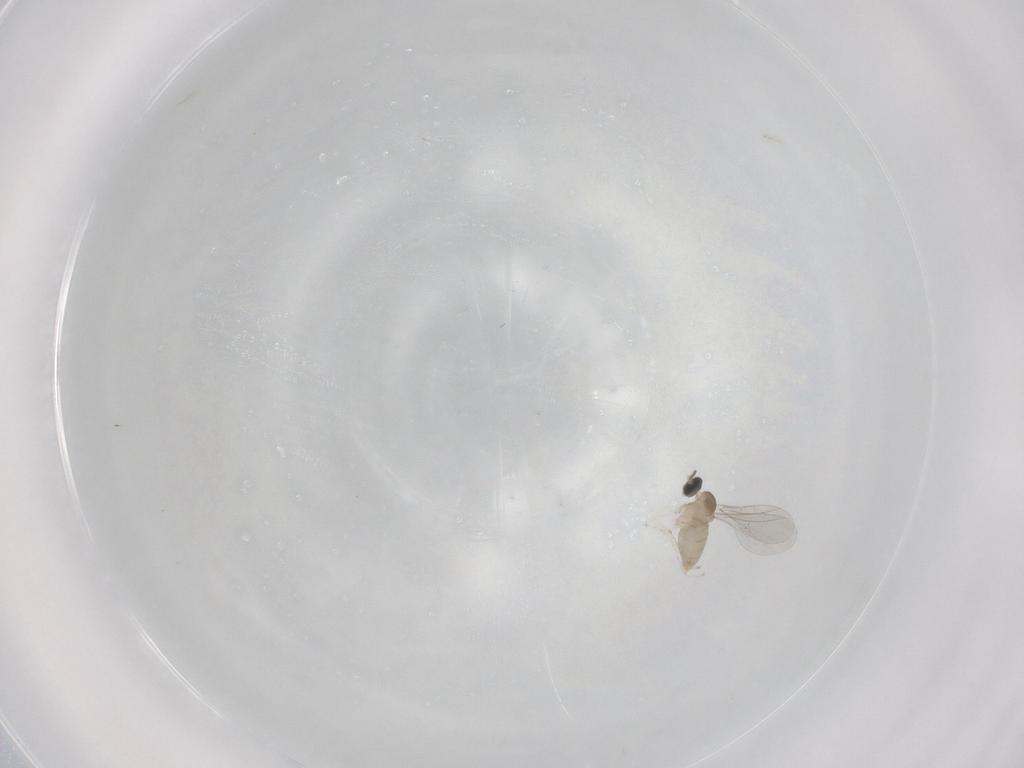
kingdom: Animalia
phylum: Arthropoda
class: Insecta
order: Diptera
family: Cecidomyiidae
